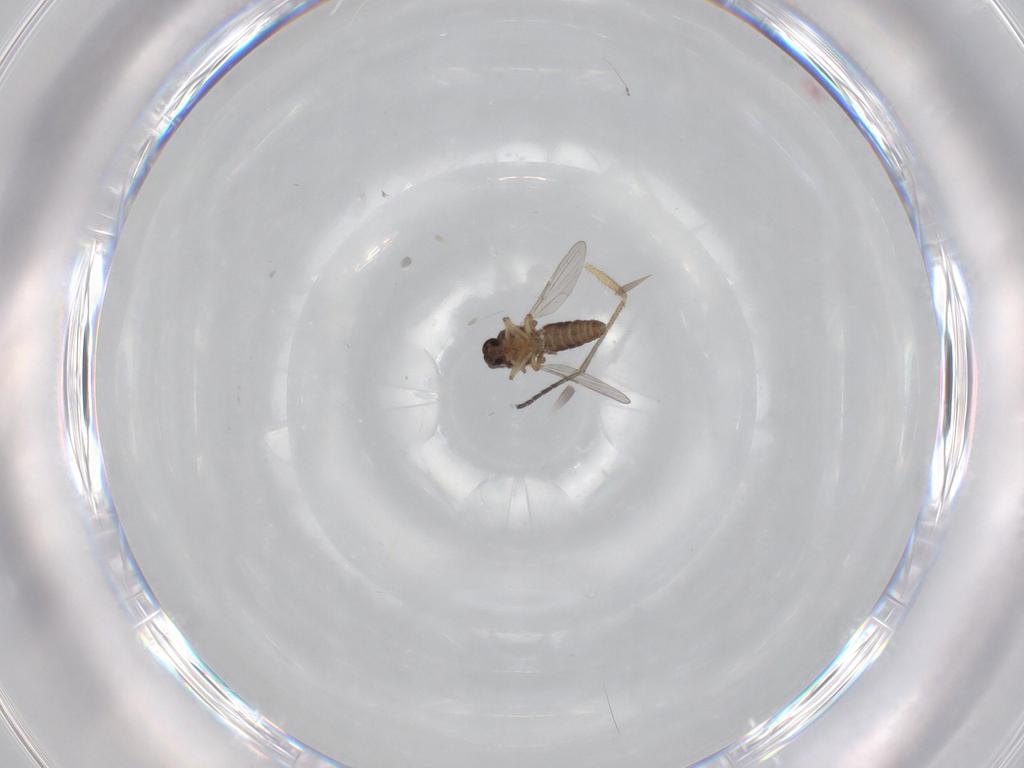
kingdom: Animalia
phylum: Arthropoda
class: Insecta
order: Diptera
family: Sciaridae
